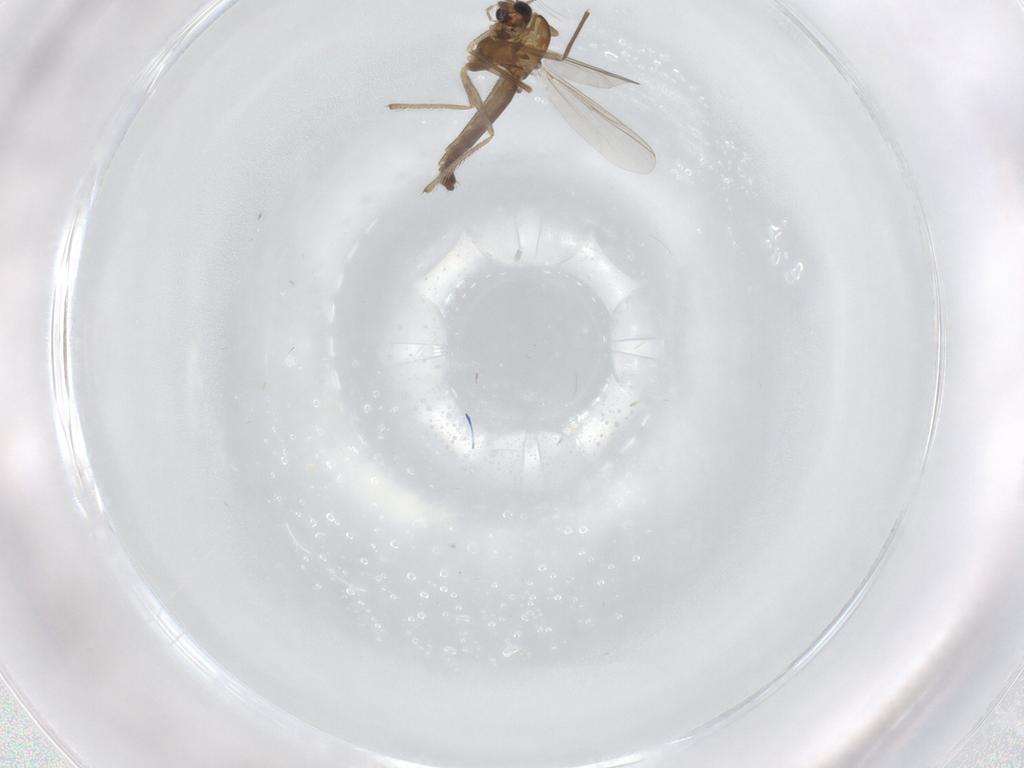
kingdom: Animalia
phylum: Arthropoda
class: Insecta
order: Diptera
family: Chironomidae
